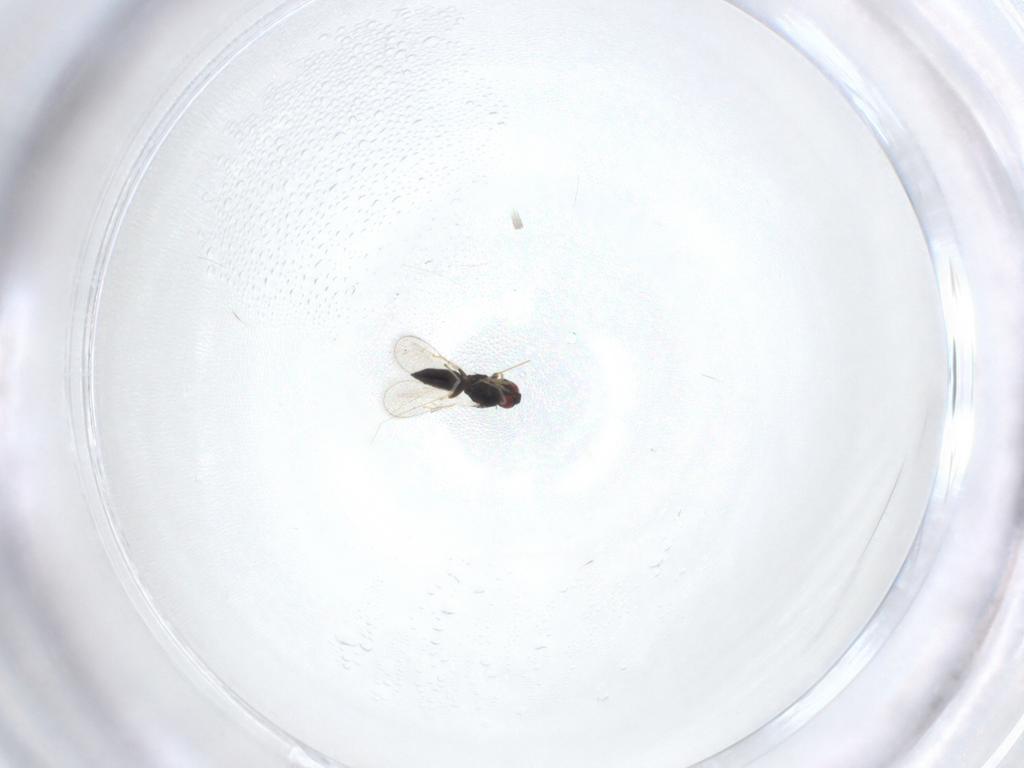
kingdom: Animalia
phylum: Arthropoda
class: Insecta
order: Hymenoptera
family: Eulophidae
